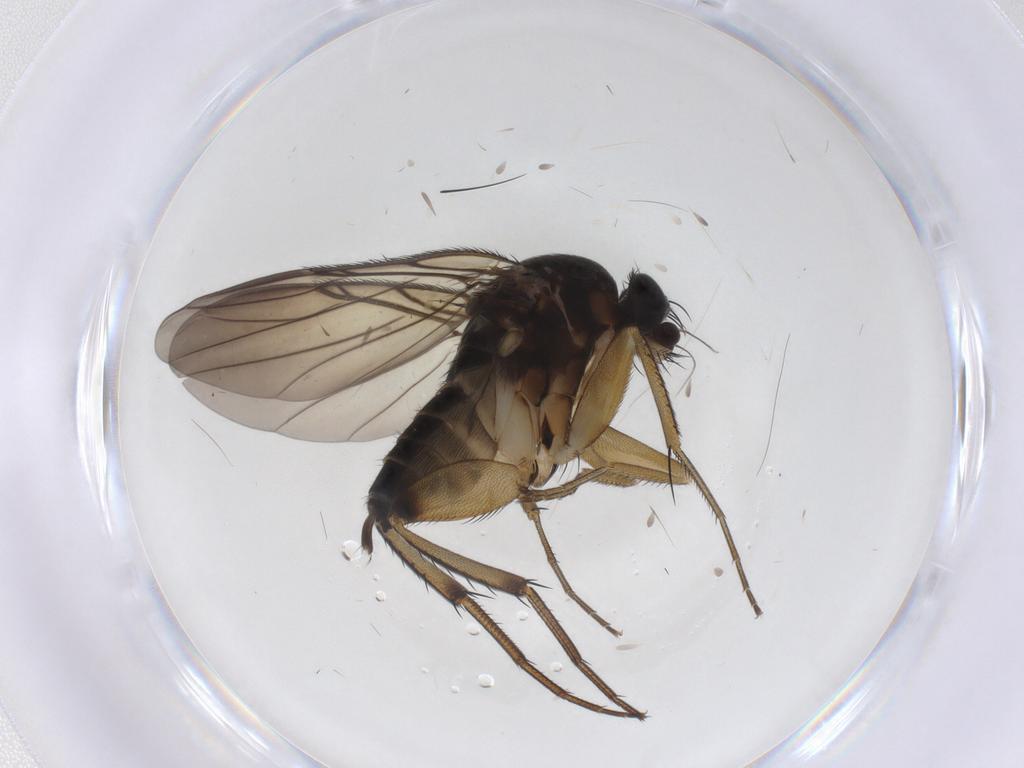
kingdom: Animalia
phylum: Arthropoda
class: Insecta
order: Diptera
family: Phoridae
